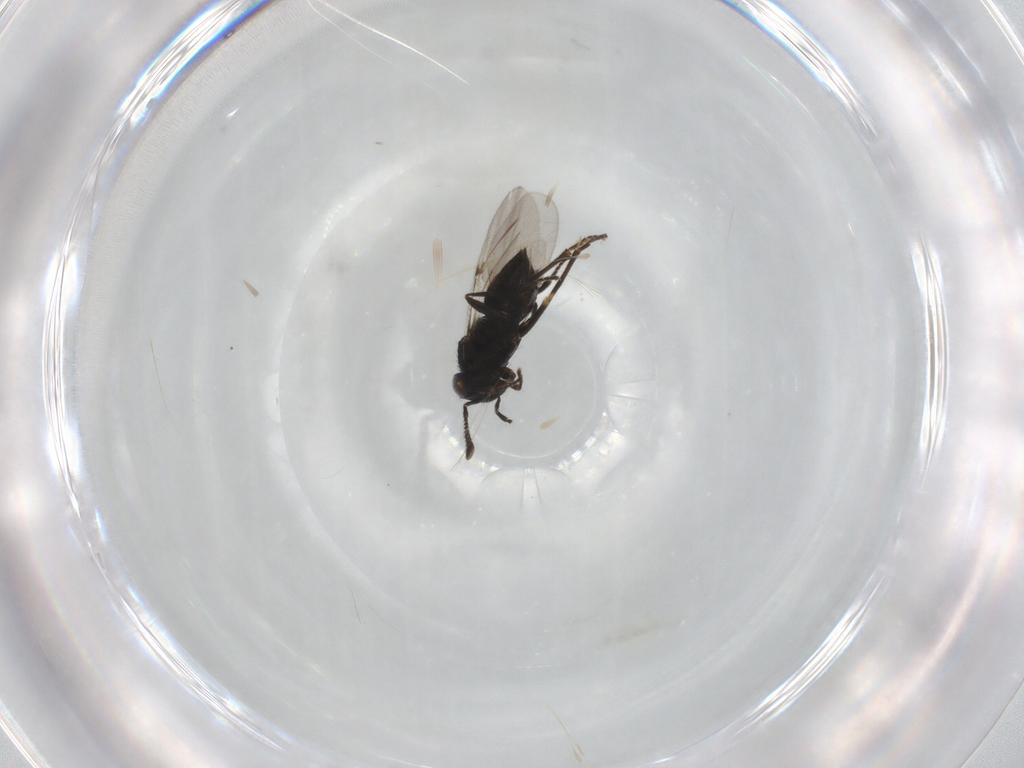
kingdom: Animalia
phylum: Arthropoda
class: Insecta
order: Hymenoptera
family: Encyrtidae
